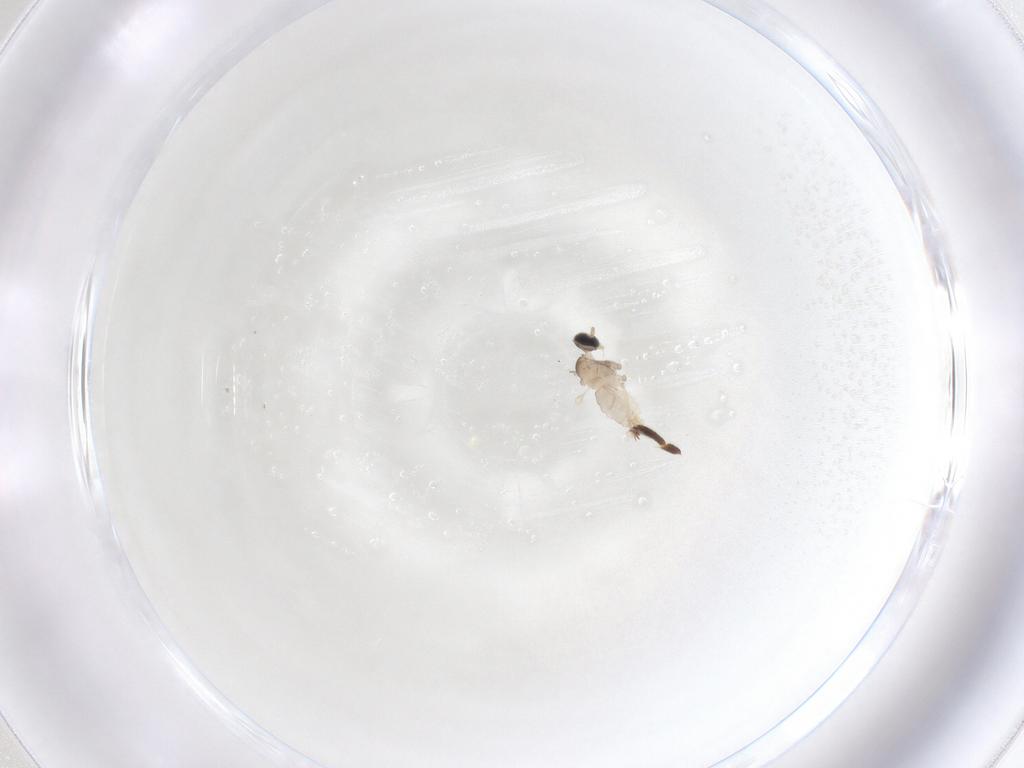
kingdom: Animalia
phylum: Arthropoda
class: Insecta
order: Diptera
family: Cecidomyiidae
